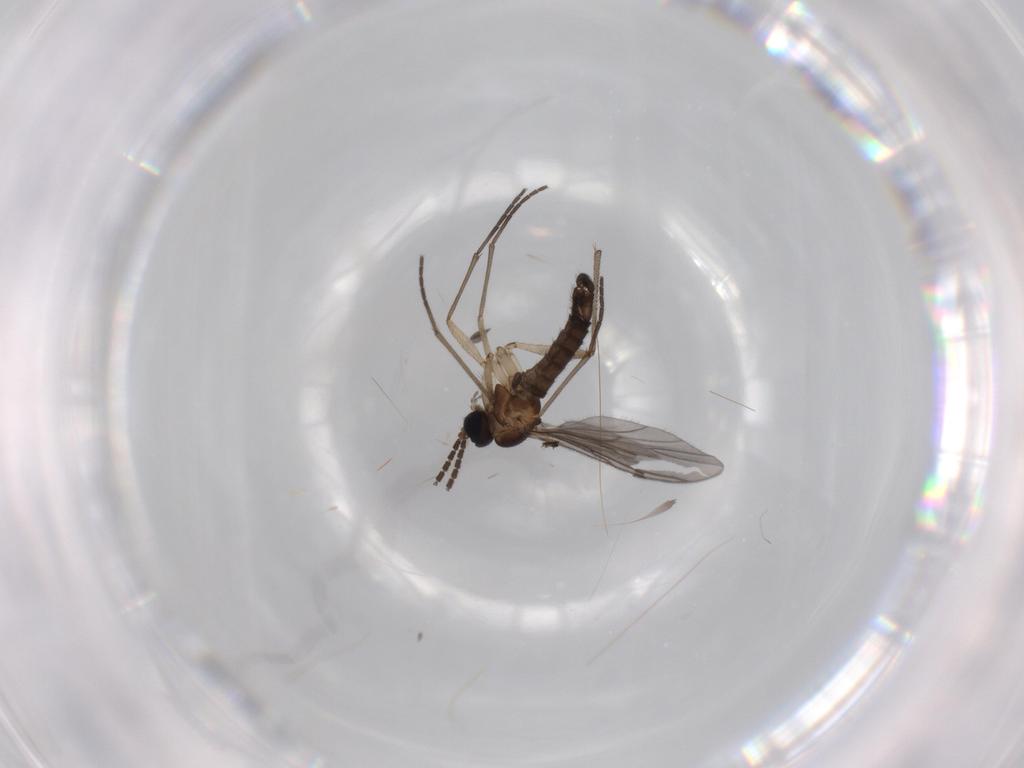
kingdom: Animalia
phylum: Arthropoda
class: Insecta
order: Diptera
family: Sciaridae
